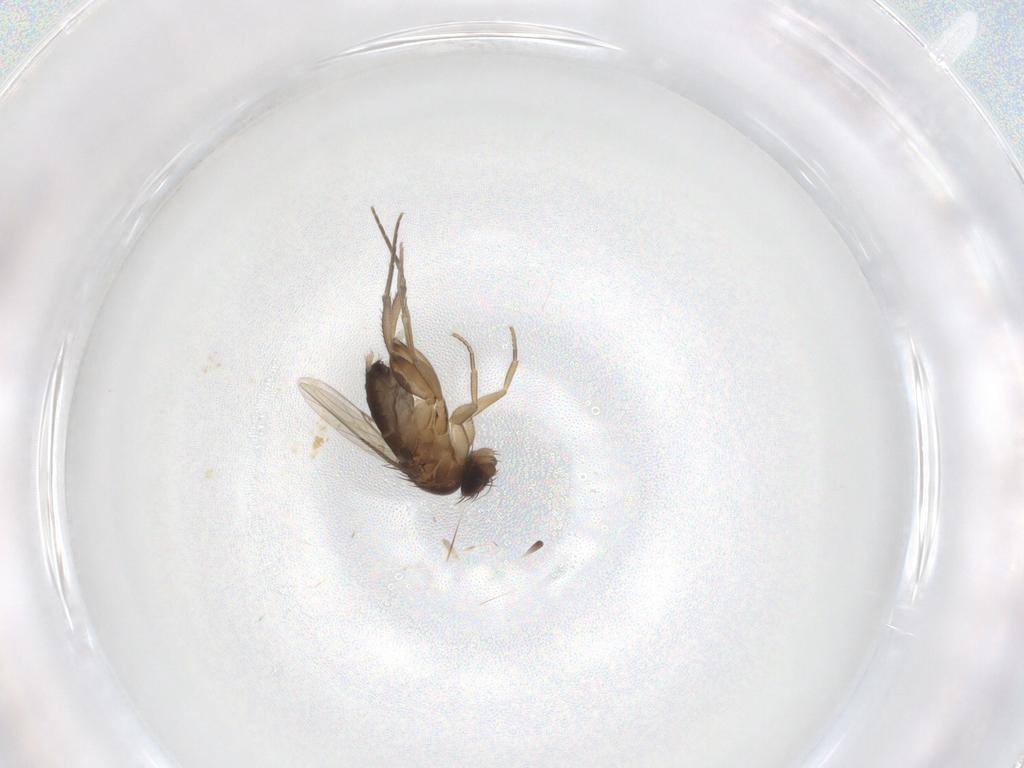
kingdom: Animalia
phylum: Arthropoda
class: Insecta
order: Diptera
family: Phoridae
